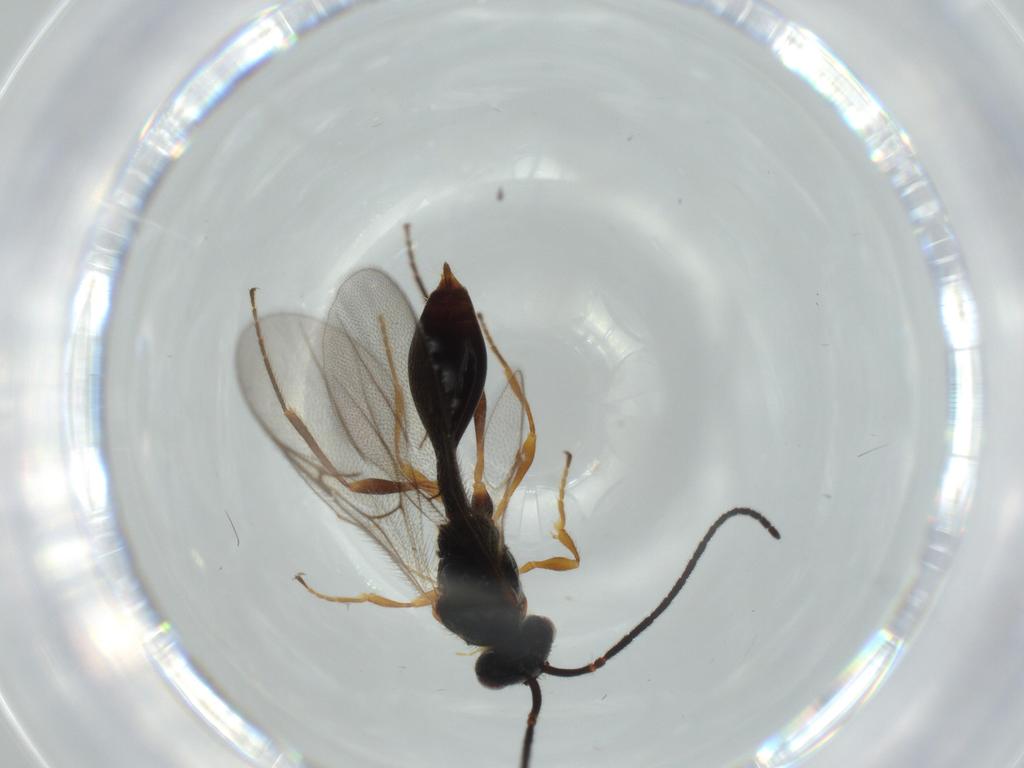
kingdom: Animalia
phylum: Arthropoda
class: Insecta
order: Hymenoptera
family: Diapriidae
